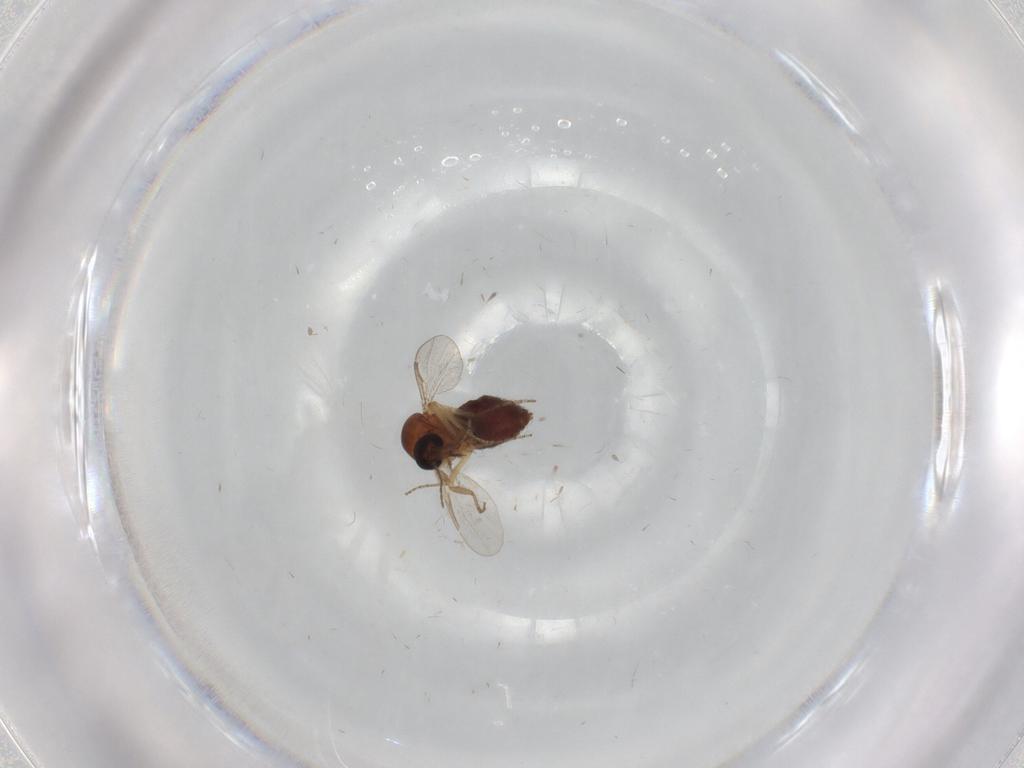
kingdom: Animalia
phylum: Arthropoda
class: Insecta
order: Diptera
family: Ceratopogonidae
